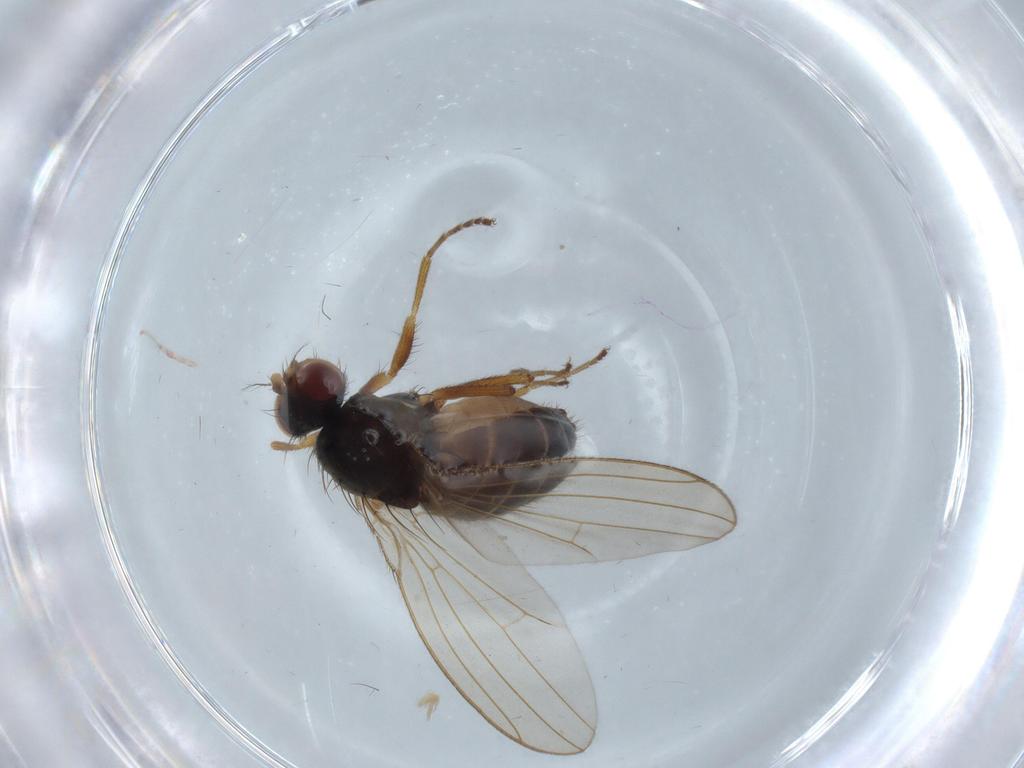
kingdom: Animalia
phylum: Arthropoda
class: Insecta
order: Diptera
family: Drosophilidae
